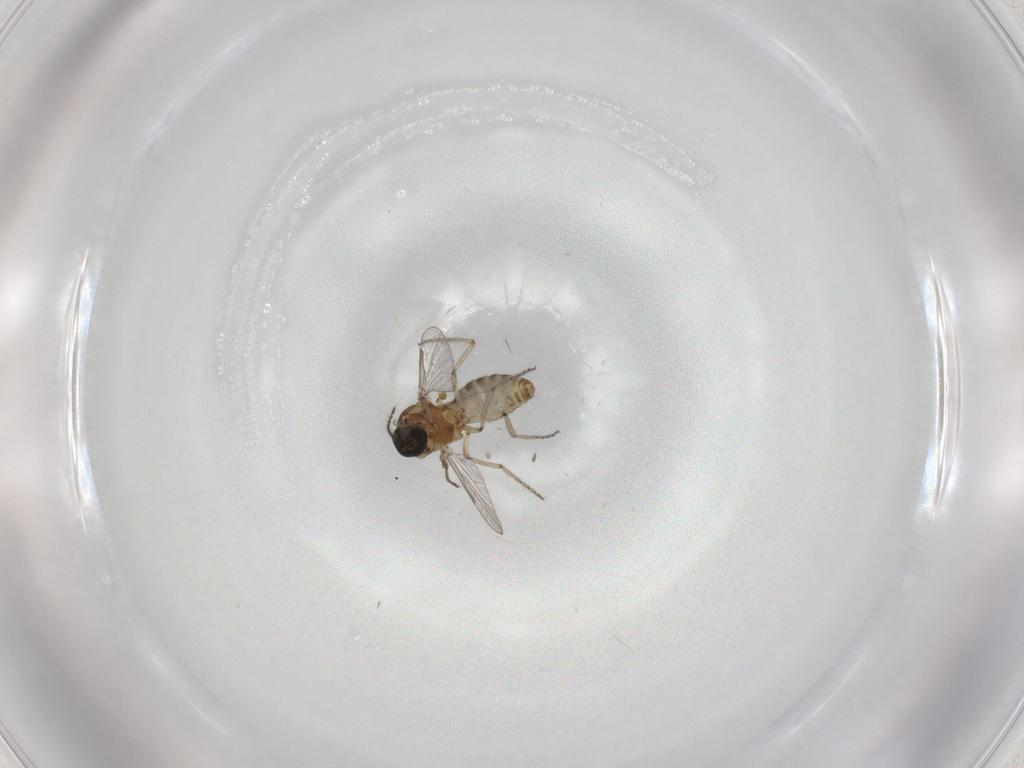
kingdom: Animalia
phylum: Arthropoda
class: Insecta
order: Diptera
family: Ceratopogonidae
